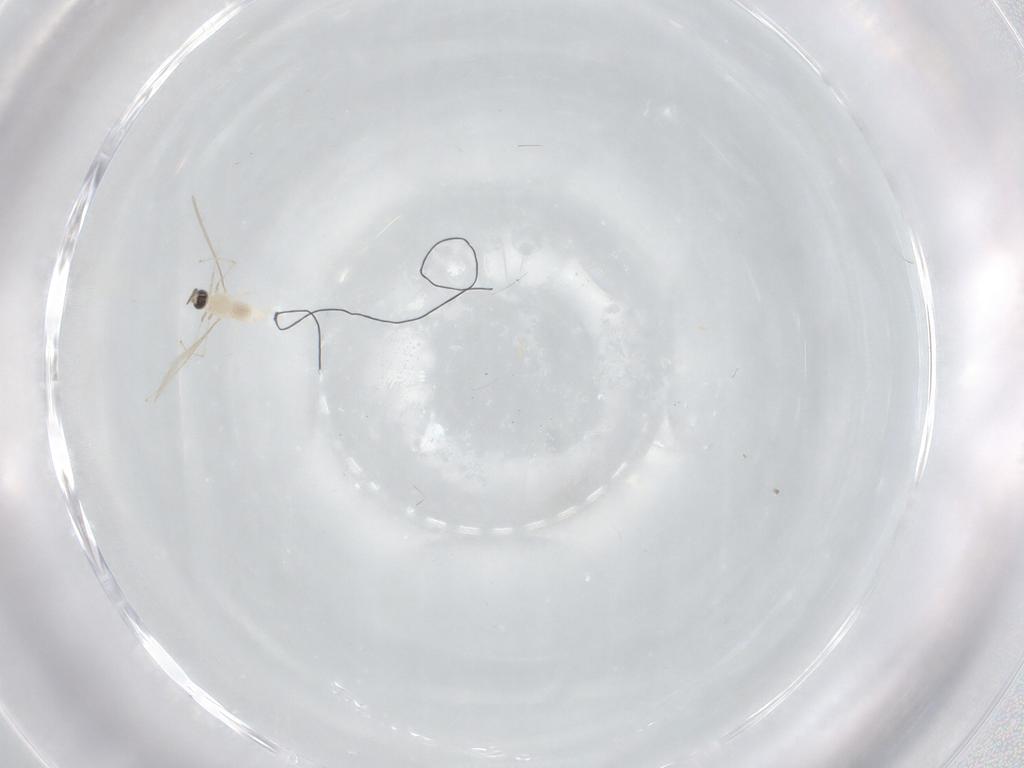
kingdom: Animalia
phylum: Arthropoda
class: Insecta
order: Diptera
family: Cecidomyiidae
